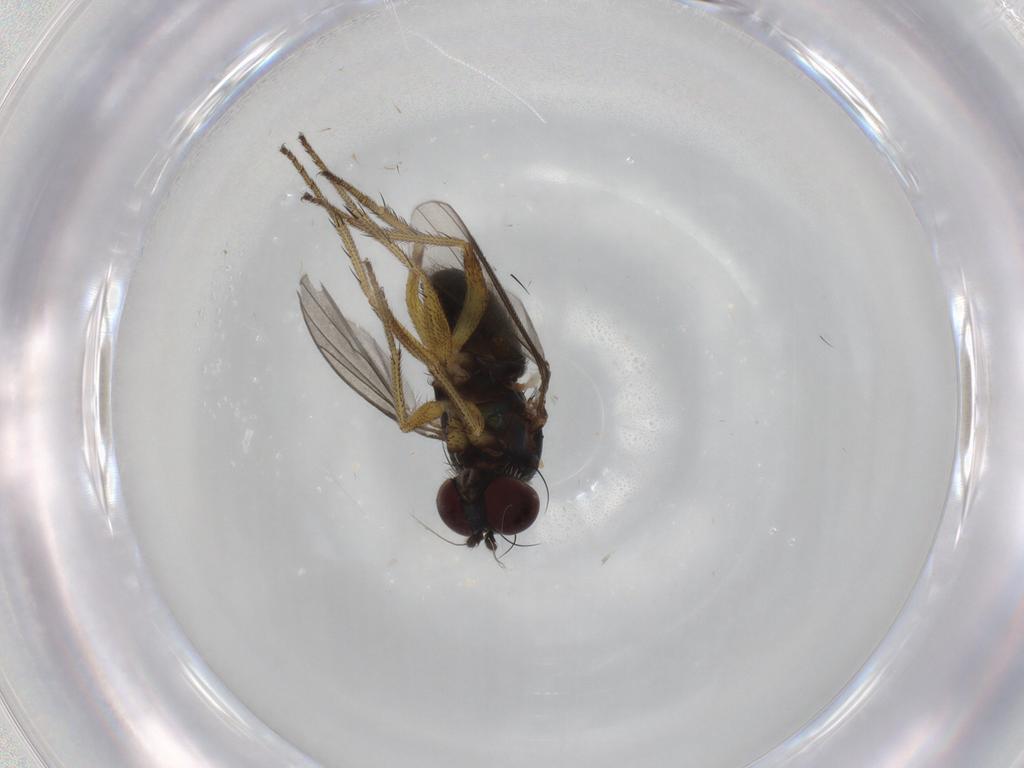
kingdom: Animalia
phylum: Arthropoda
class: Insecta
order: Diptera
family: Dolichopodidae
